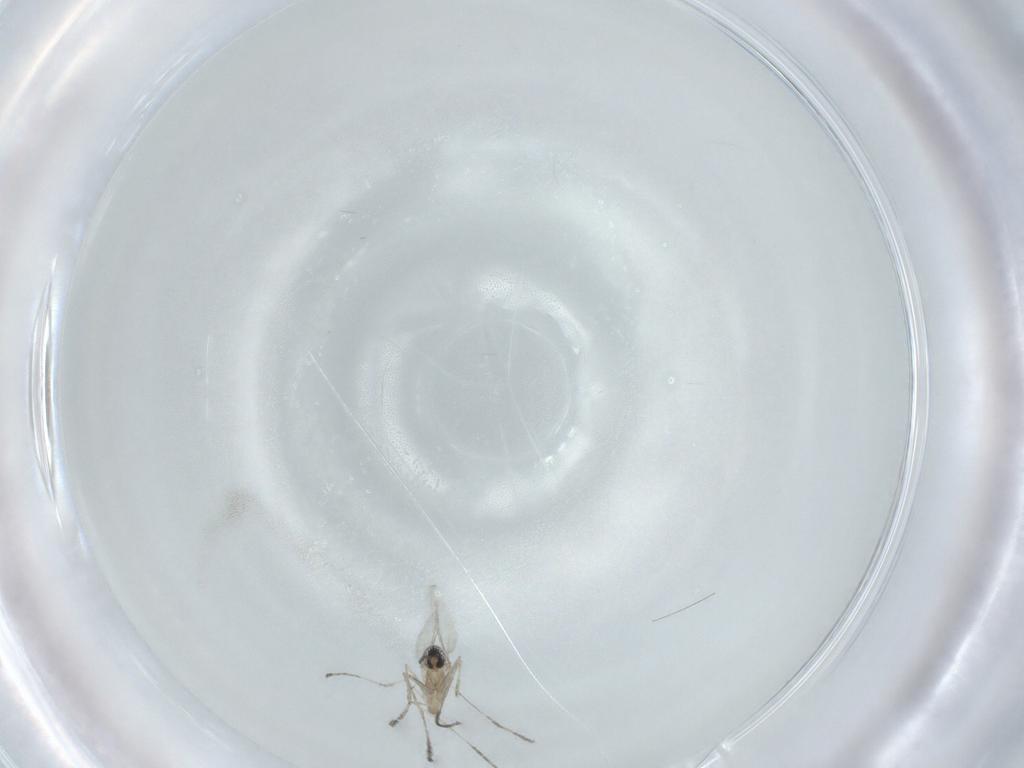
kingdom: Animalia
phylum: Arthropoda
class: Insecta
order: Diptera
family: Cecidomyiidae
